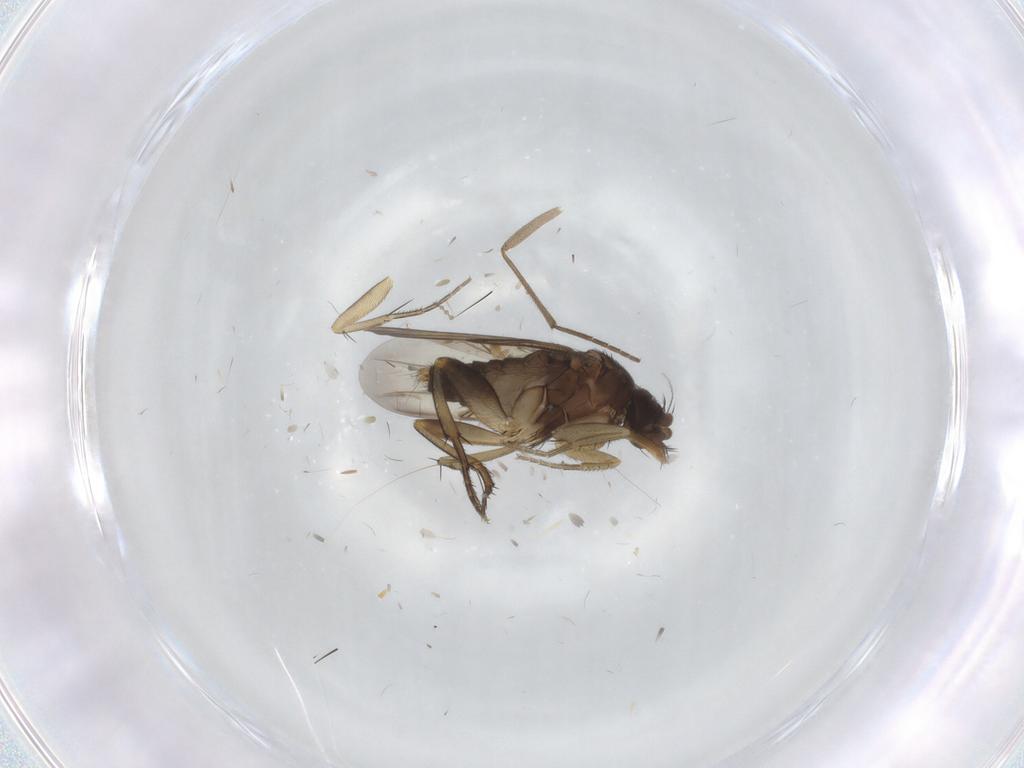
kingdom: Animalia
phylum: Arthropoda
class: Insecta
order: Diptera
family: Ceratopogonidae
